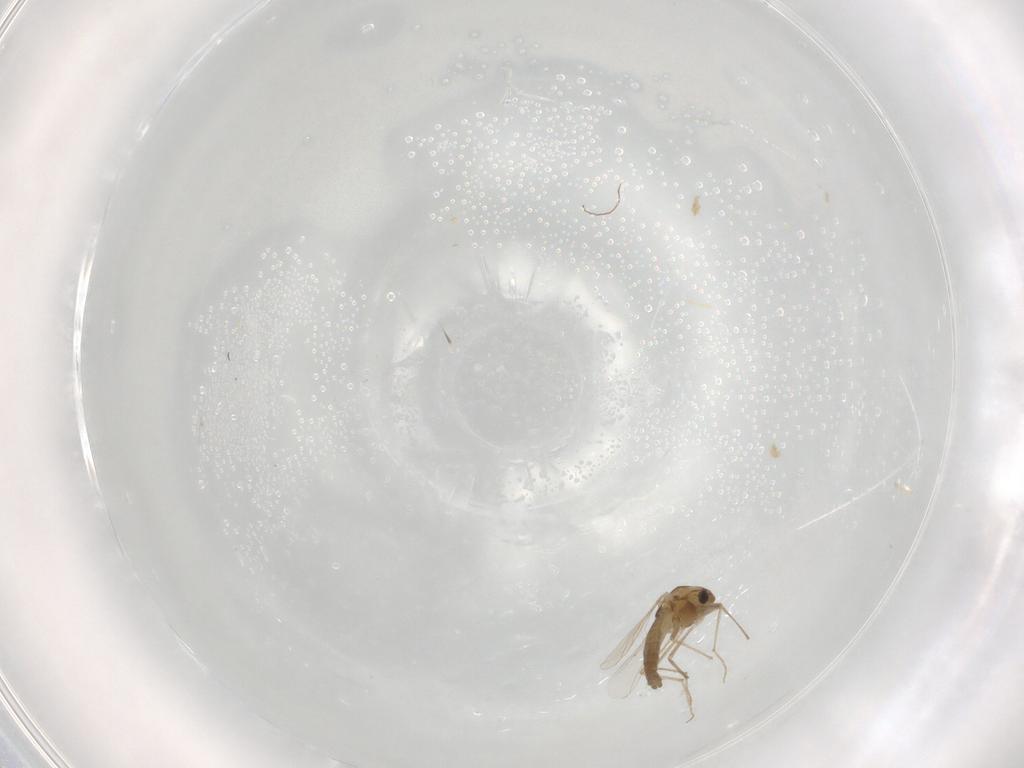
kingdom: Animalia
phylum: Arthropoda
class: Insecta
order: Diptera
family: Chironomidae
